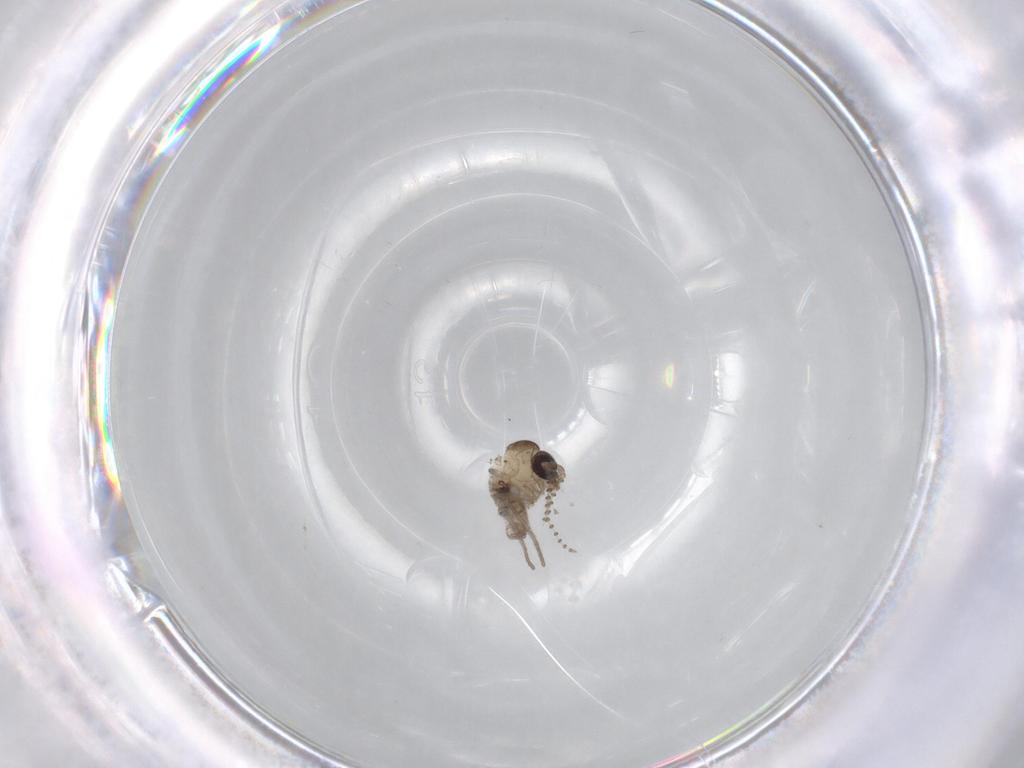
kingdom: Animalia
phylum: Arthropoda
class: Insecta
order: Diptera
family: Psychodidae
